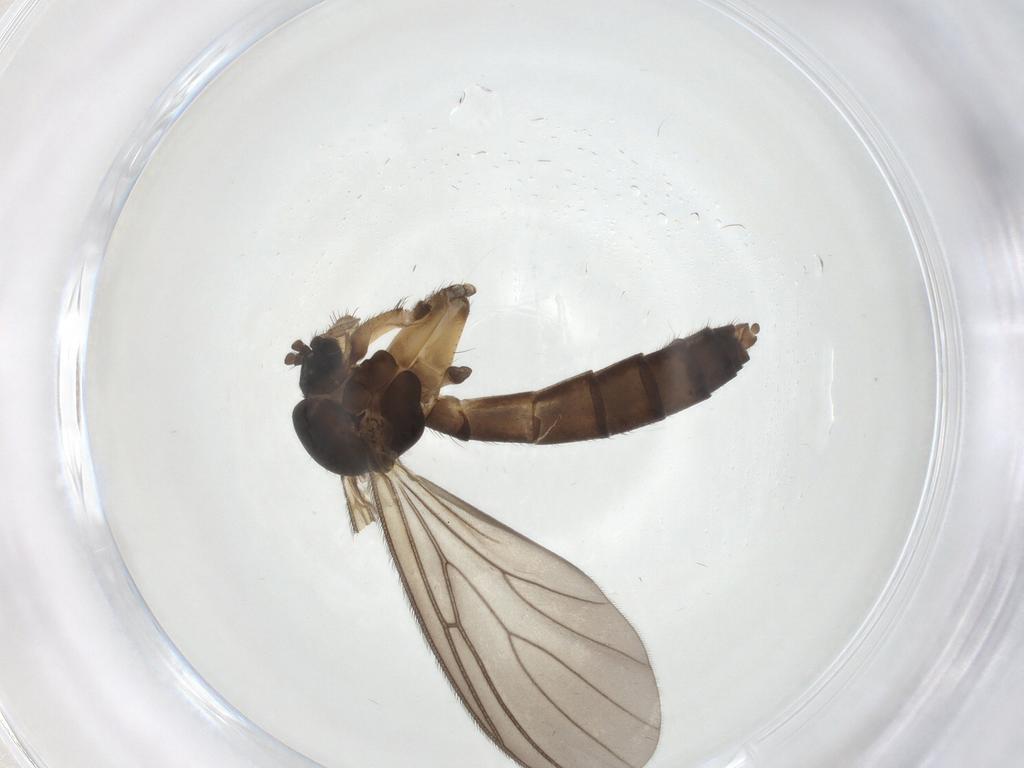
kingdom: Animalia
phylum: Arthropoda
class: Insecta
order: Diptera
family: Mycetophilidae
